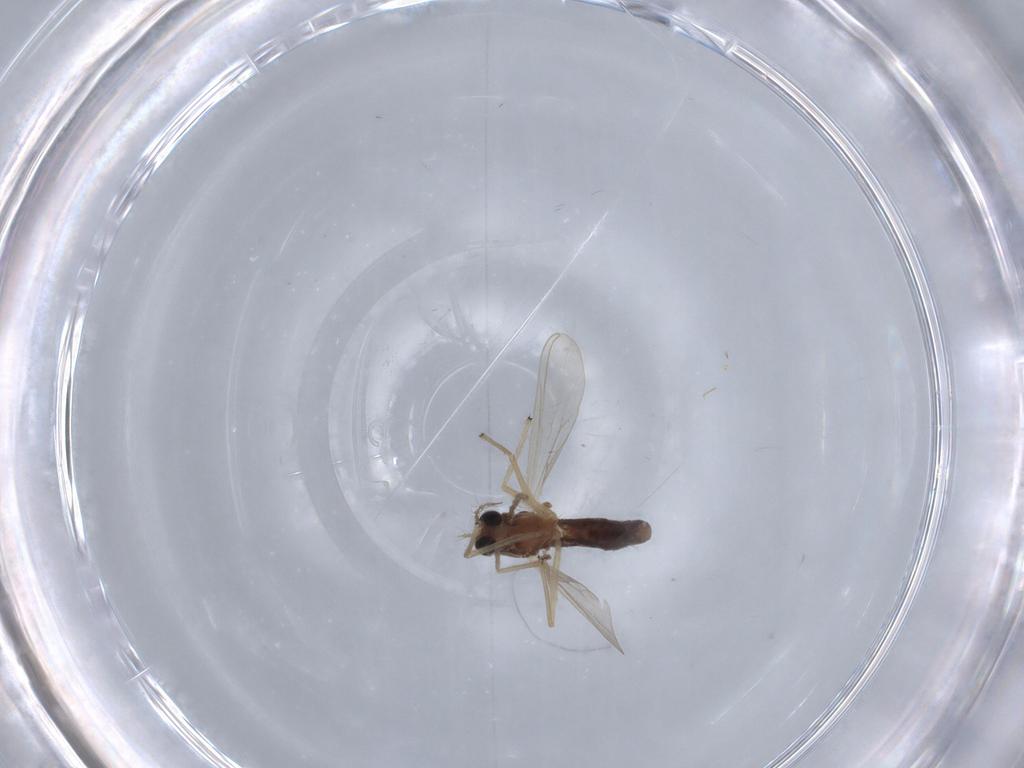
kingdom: Animalia
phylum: Arthropoda
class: Insecta
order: Diptera
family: Chironomidae
